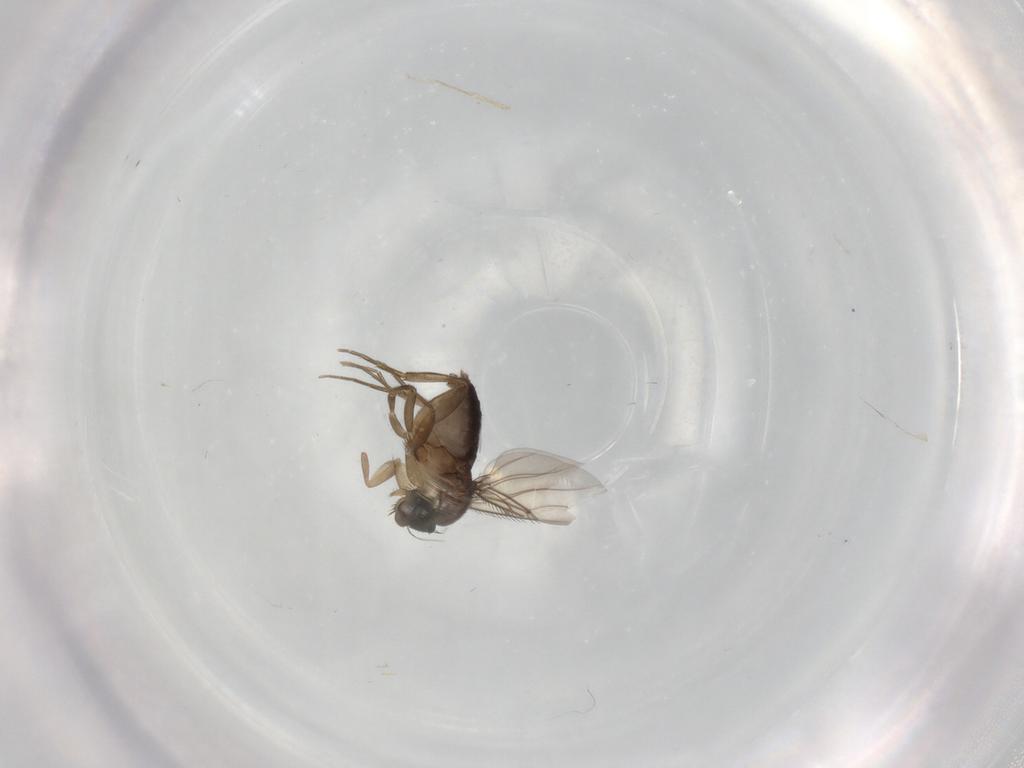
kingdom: Animalia
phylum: Arthropoda
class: Insecta
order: Diptera
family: Phoridae
